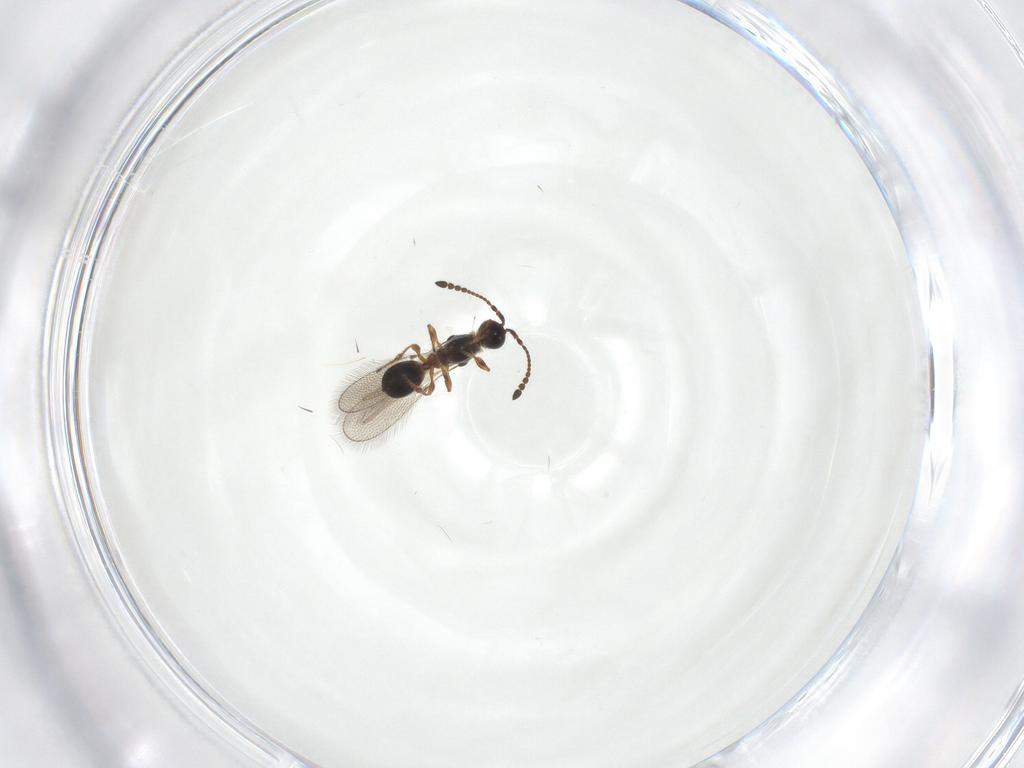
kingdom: Animalia
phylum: Arthropoda
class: Insecta
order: Hymenoptera
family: Diapriidae
